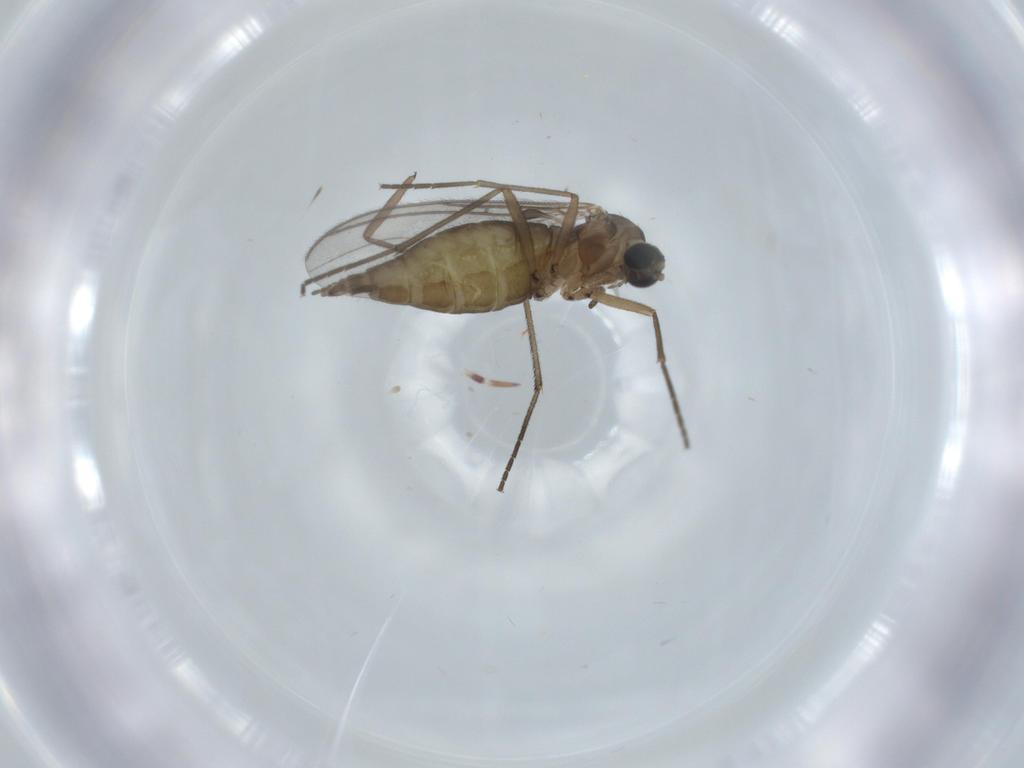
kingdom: Animalia
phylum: Arthropoda
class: Insecta
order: Diptera
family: Sciaridae
